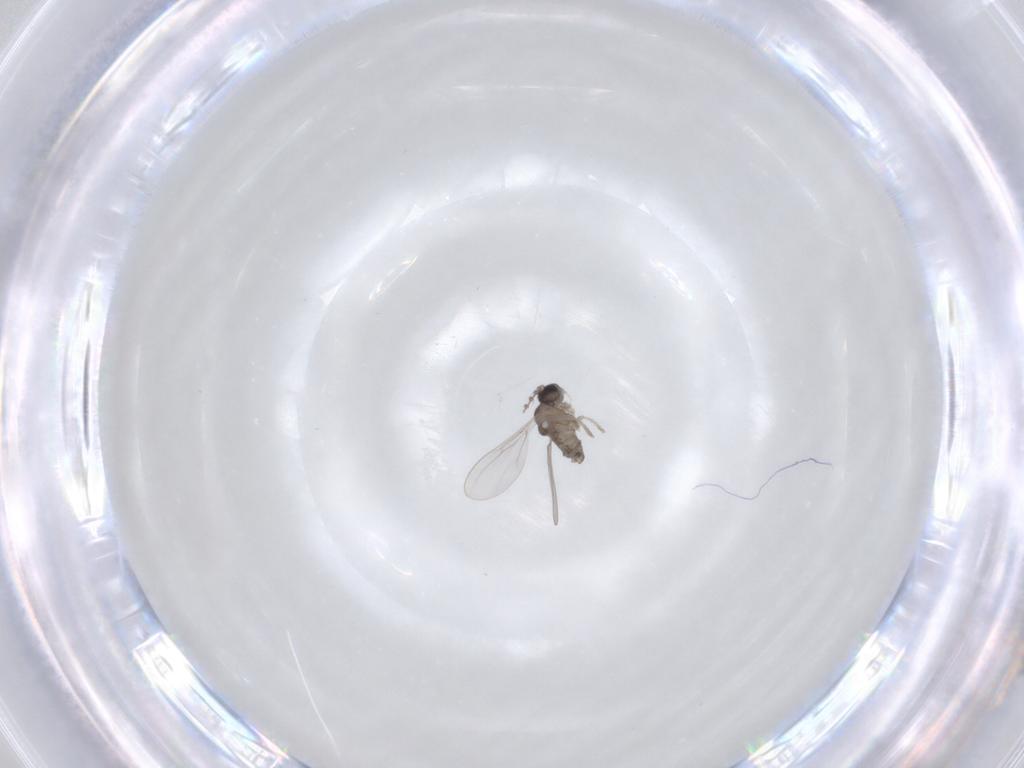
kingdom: Animalia
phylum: Arthropoda
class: Insecta
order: Diptera
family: Cecidomyiidae
